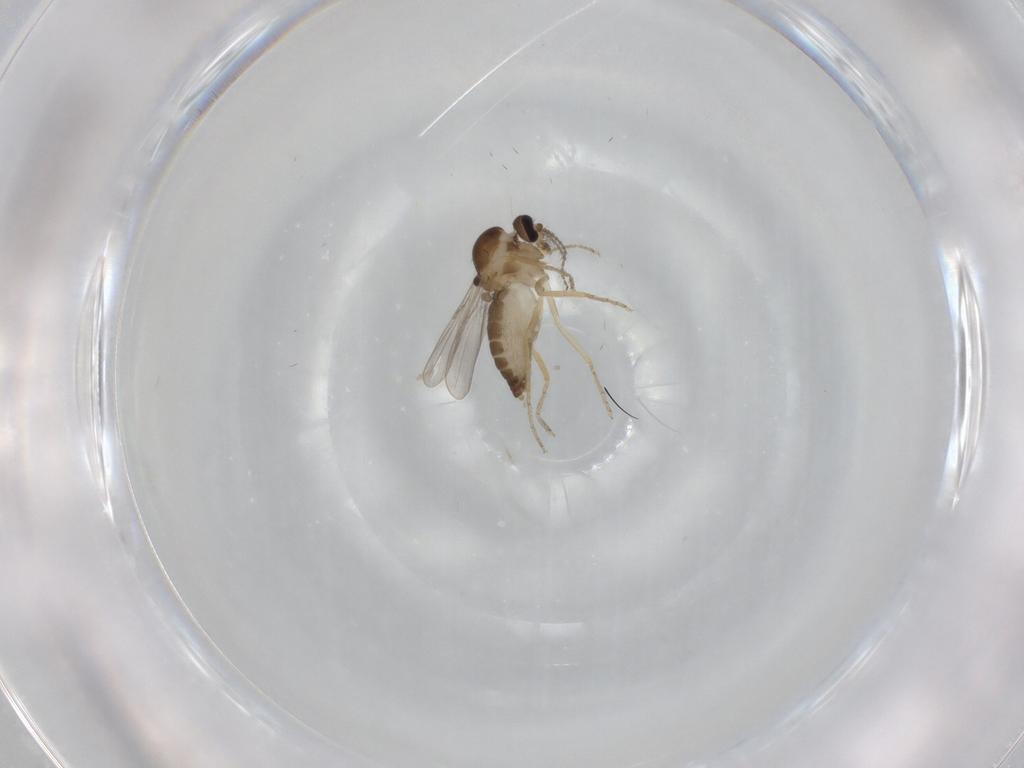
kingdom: Animalia
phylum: Arthropoda
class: Insecta
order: Diptera
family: Ceratopogonidae
